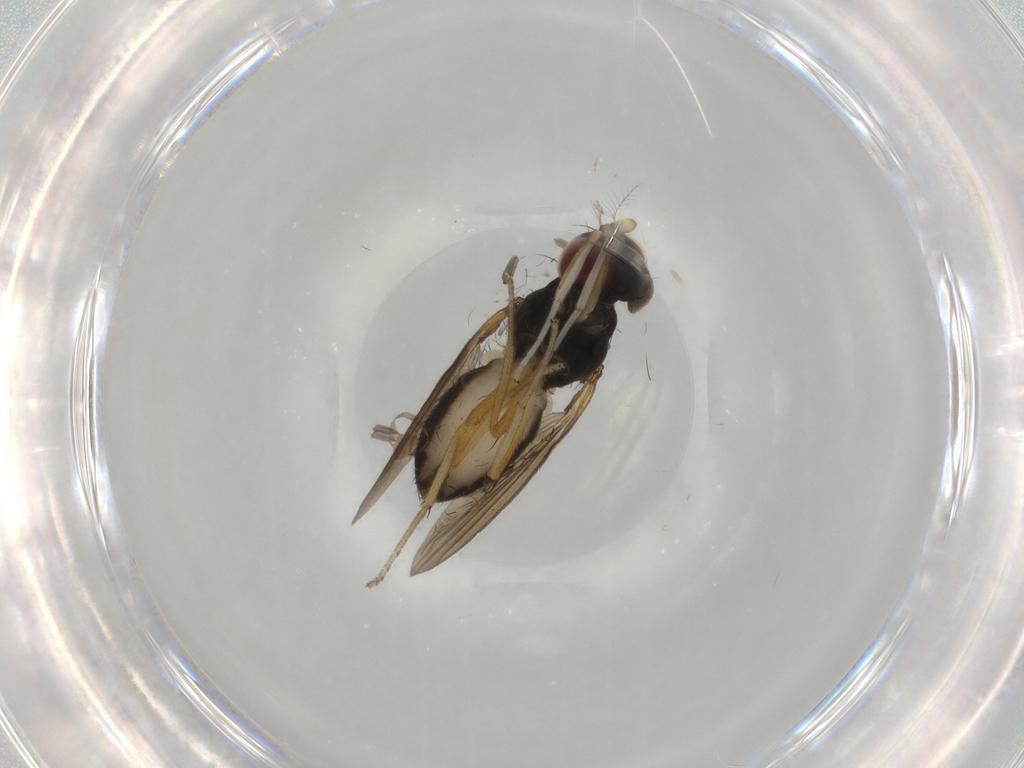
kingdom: Animalia
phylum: Arthropoda
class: Insecta
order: Diptera
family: Lauxaniidae
